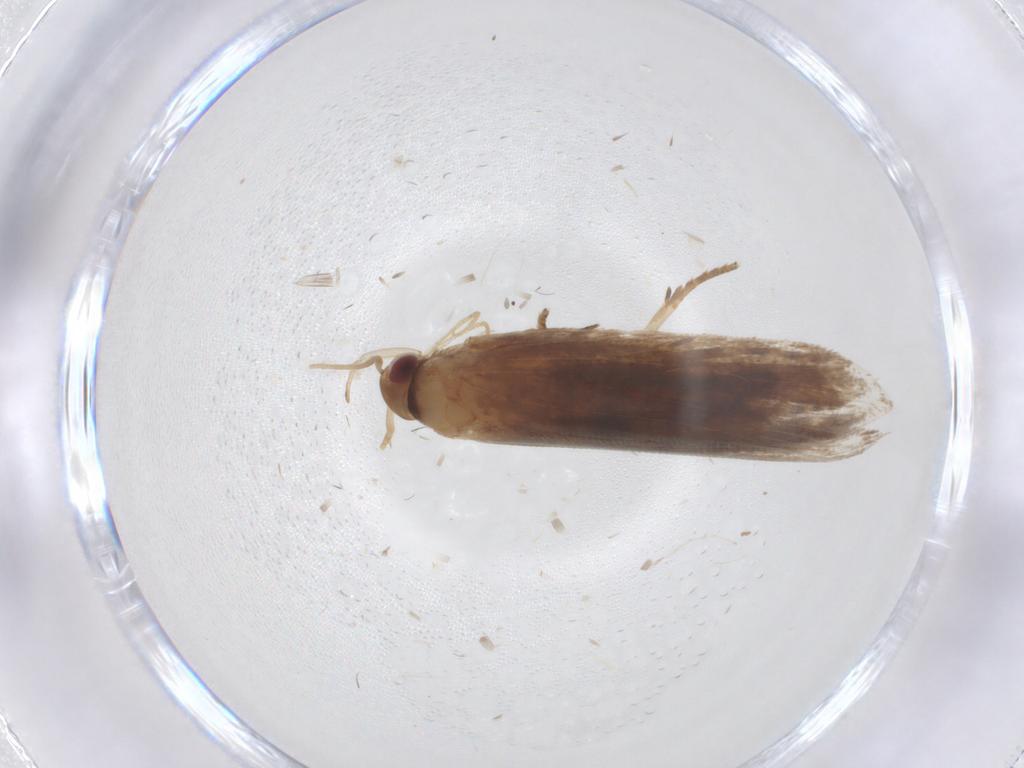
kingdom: Animalia
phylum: Arthropoda
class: Insecta
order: Lepidoptera
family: Gelechiidae
